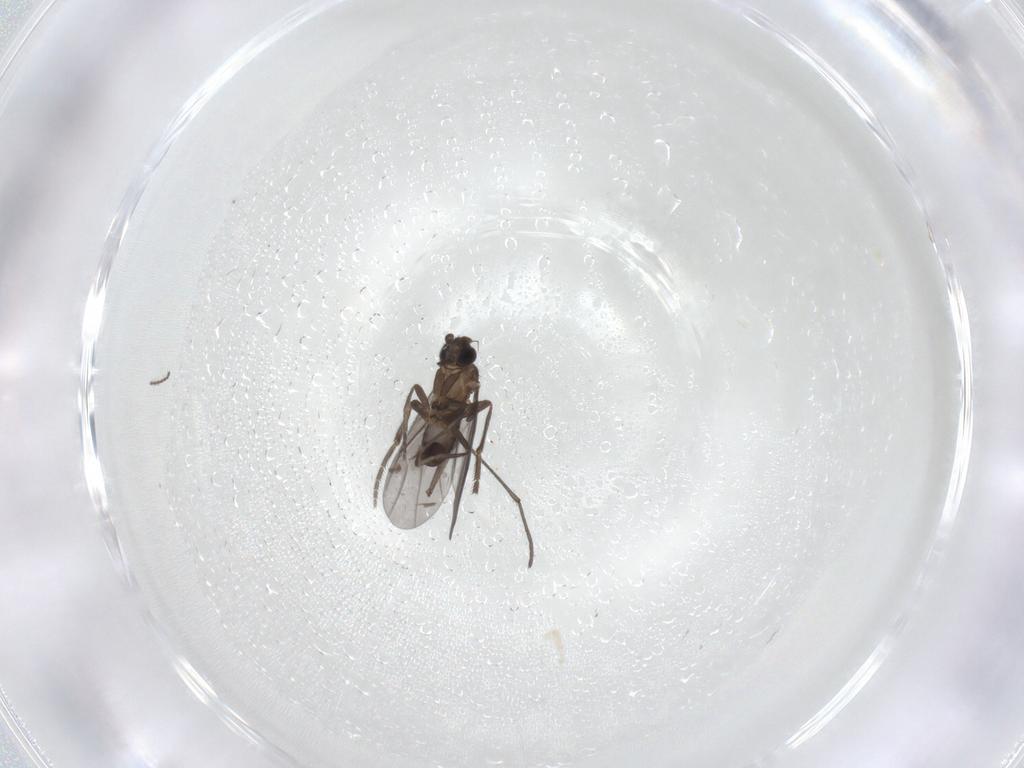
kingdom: Animalia
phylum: Arthropoda
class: Insecta
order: Diptera
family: Phoridae
